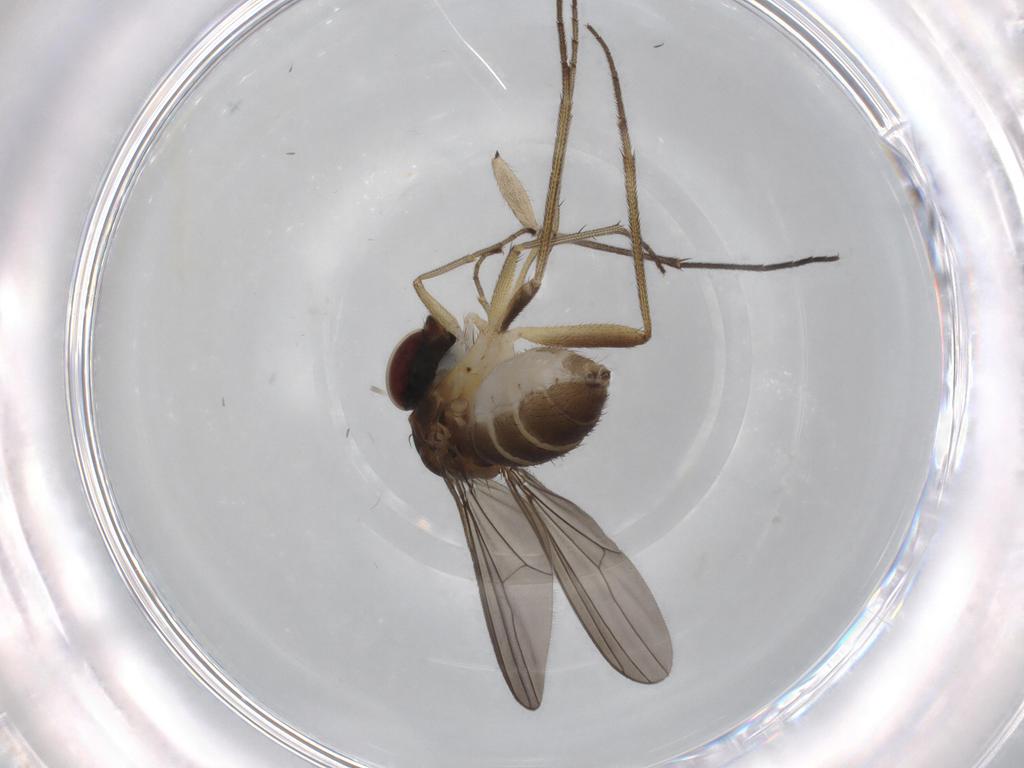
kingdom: Animalia
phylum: Arthropoda
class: Insecta
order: Diptera
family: Dolichopodidae
